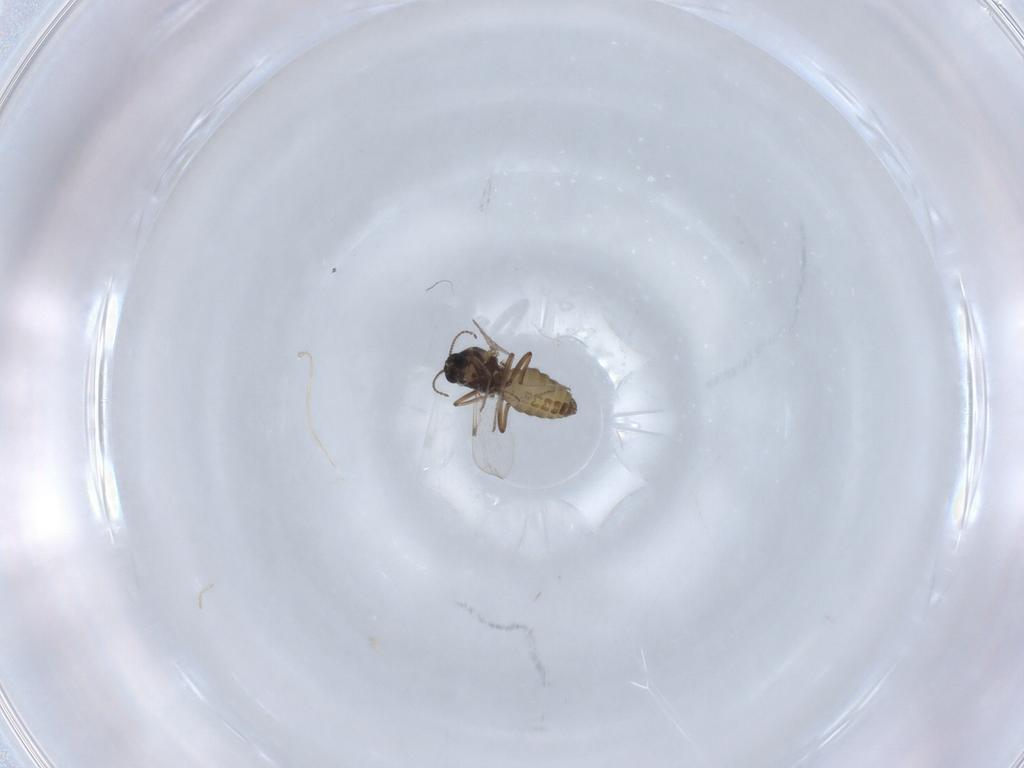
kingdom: Animalia
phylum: Arthropoda
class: Insecta
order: Diptera
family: Ceratopogonidae
